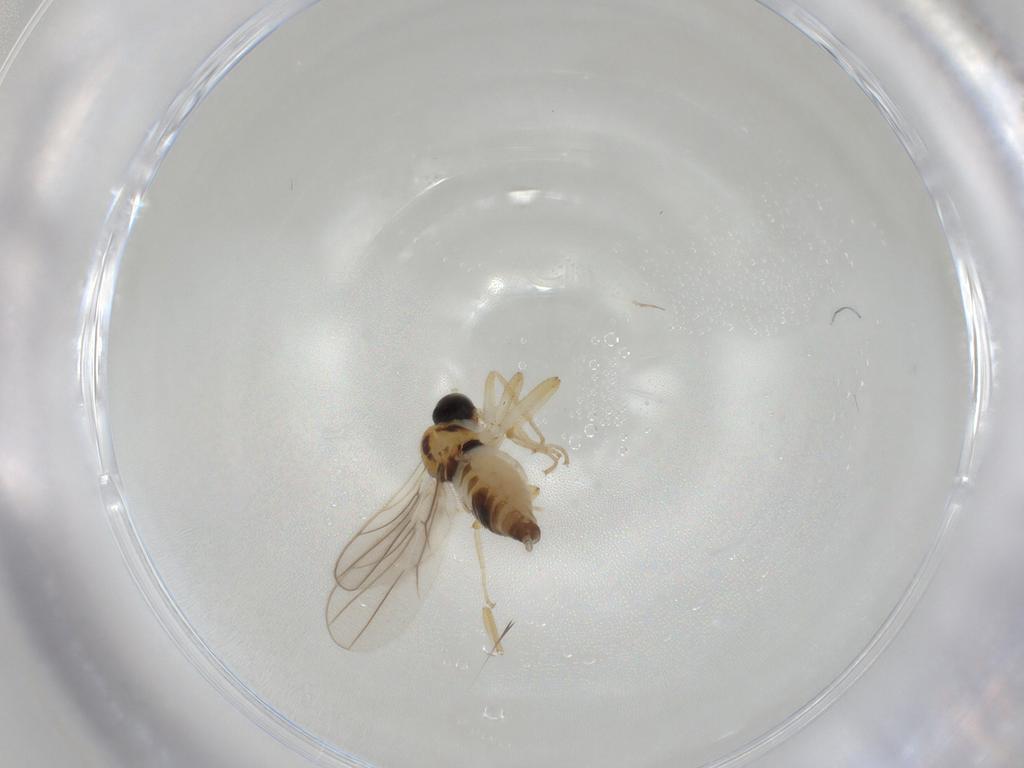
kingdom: Animalia
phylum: Arthropoda
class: Insecta
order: Diptera
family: Hybotidae
